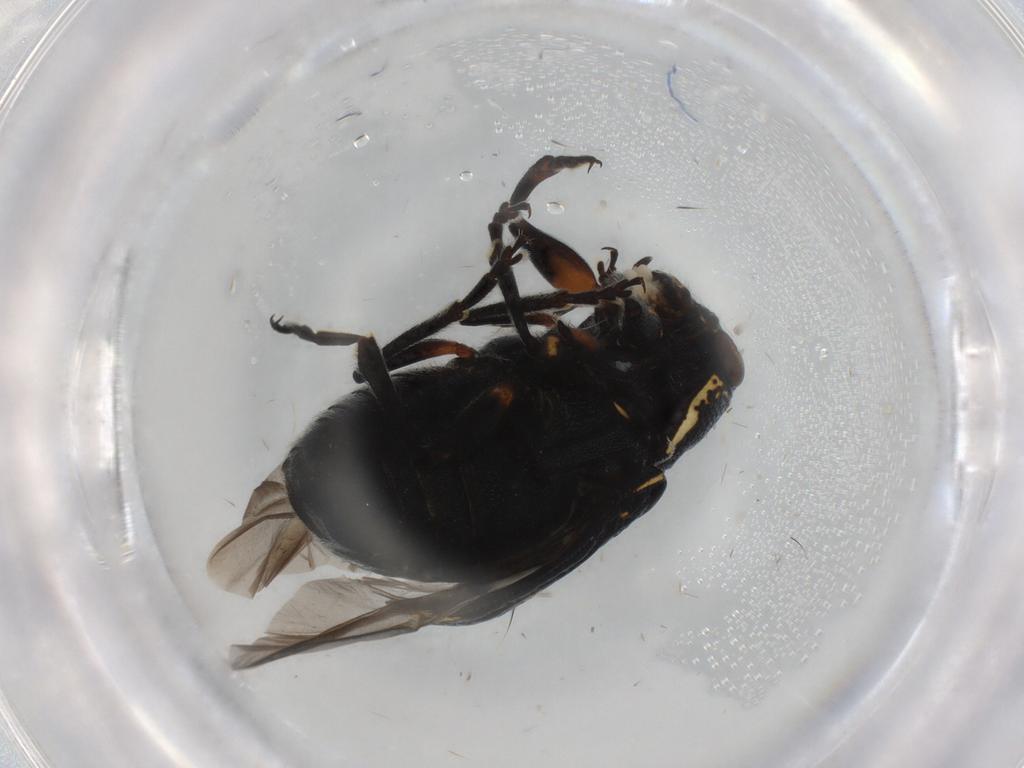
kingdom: Animalia
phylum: Arthropoda
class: Insecta
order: Coleoptera
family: Chrysomelidae
